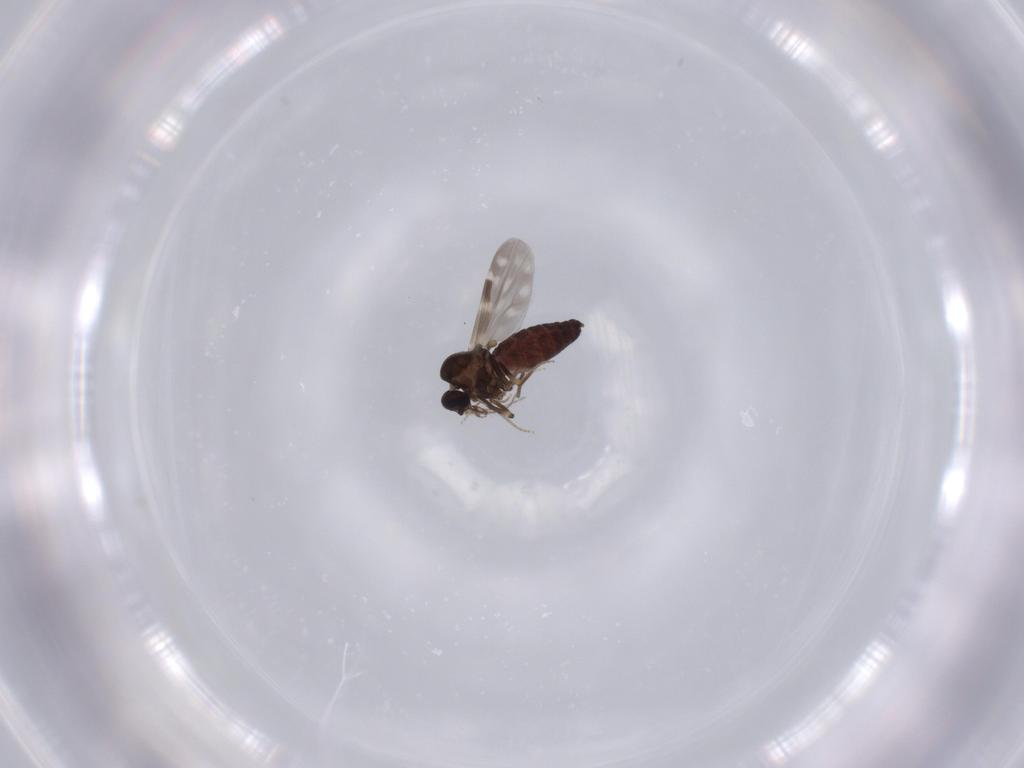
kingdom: Animalia
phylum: Arthropoda
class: Insecta
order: Diptera
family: Ceratopogonidae
